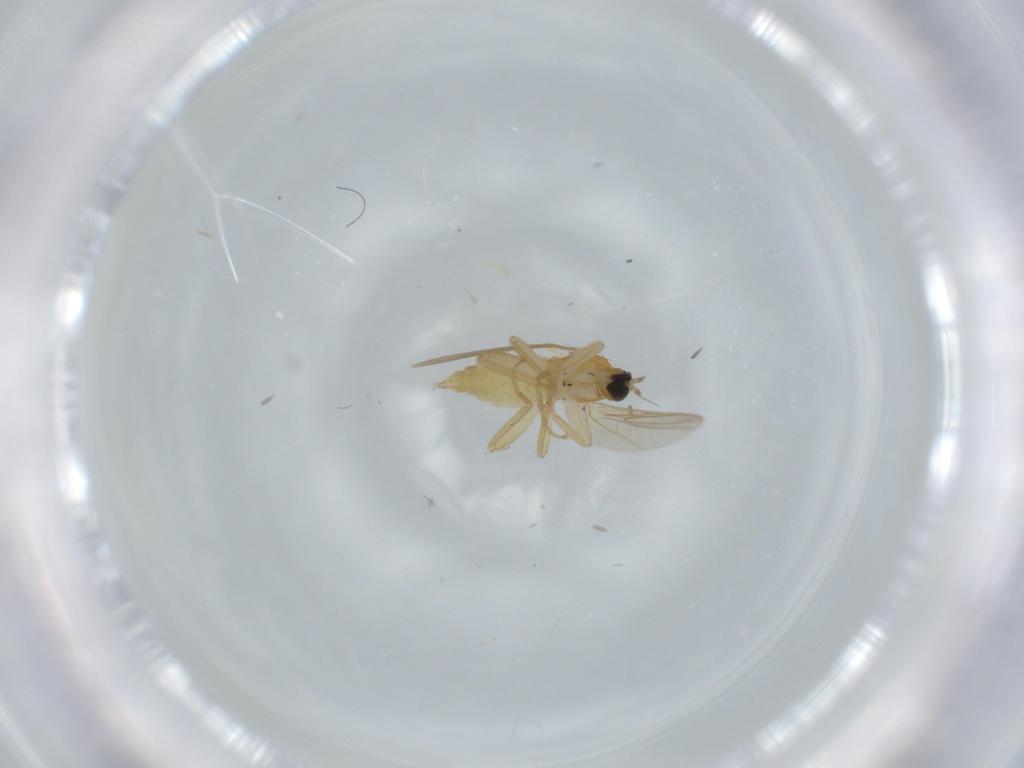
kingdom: Animalia
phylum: Arthropoda
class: Insecta
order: Diptera
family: Hybotidae
